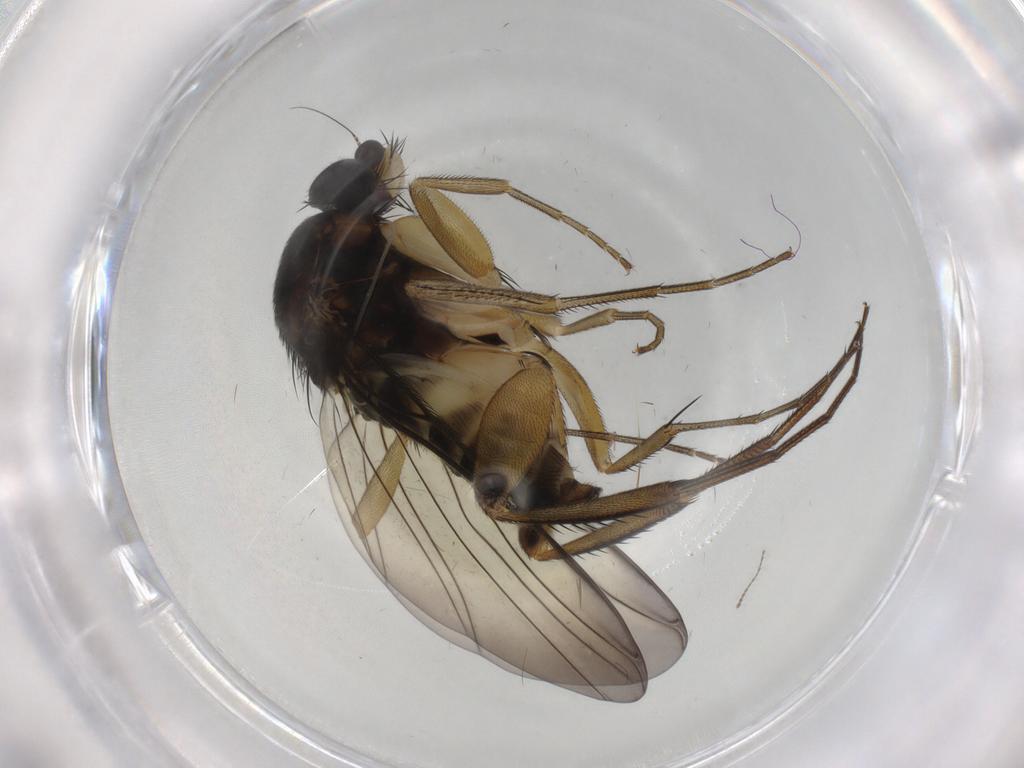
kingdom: Animalia
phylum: Arthropoda
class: Insecta
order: Diptera
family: Phoridae
